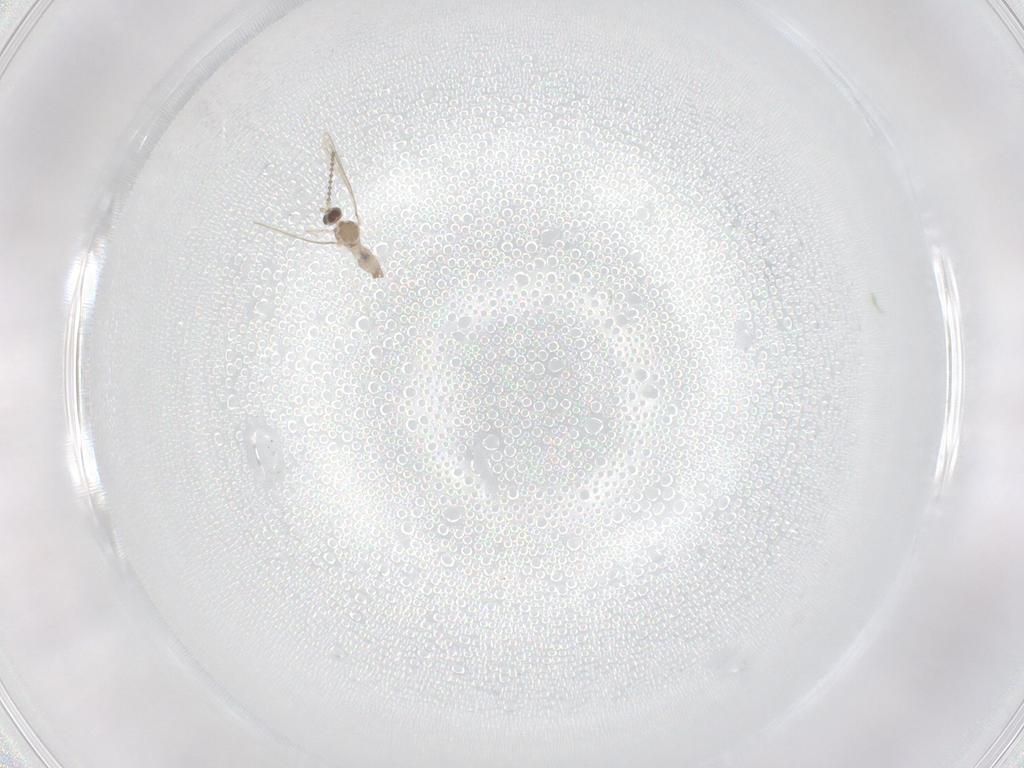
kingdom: Animalia
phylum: Arthropoda
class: Insecta
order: Diptera
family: Cecidomyiidae
